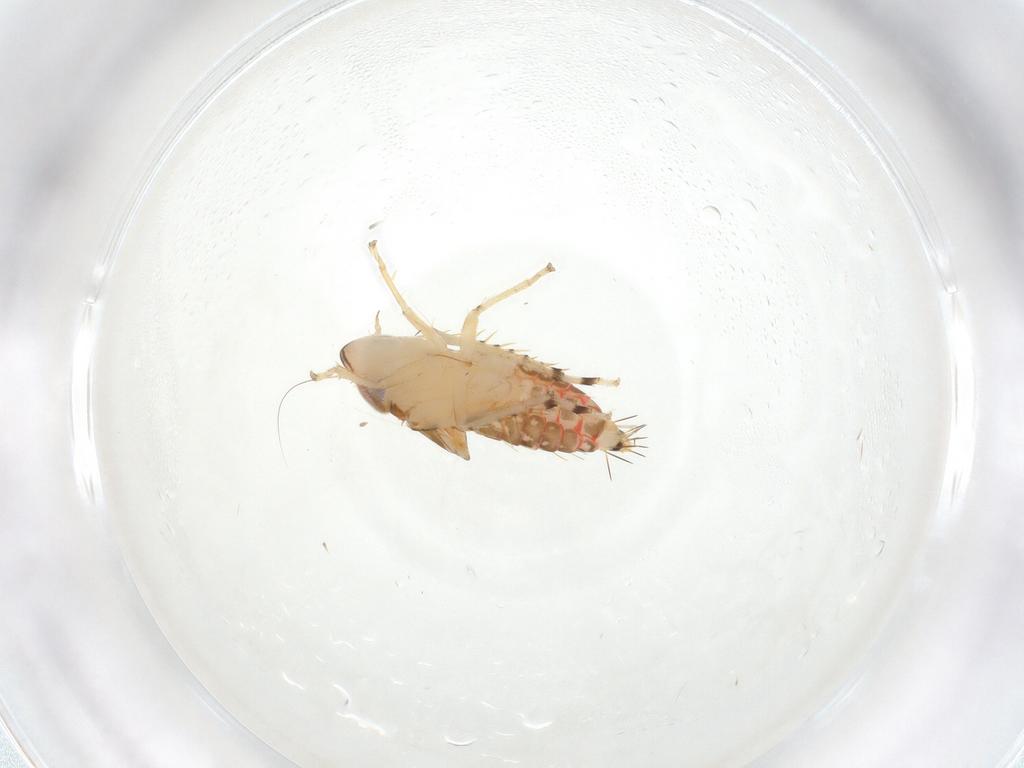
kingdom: Animalia
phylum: Arthropoda
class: Insecta
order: Hemiptera
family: Cicadellidae
